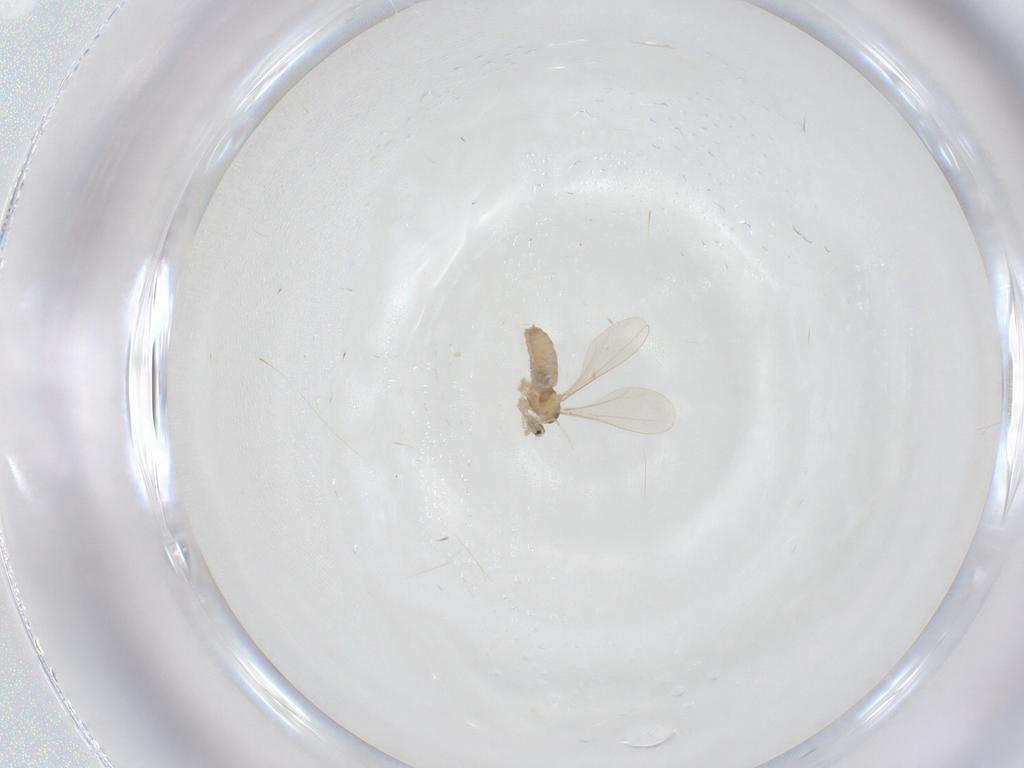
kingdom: Animalia
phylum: Arthropoda
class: Insecta
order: Diptera
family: Cecidomyiidae
